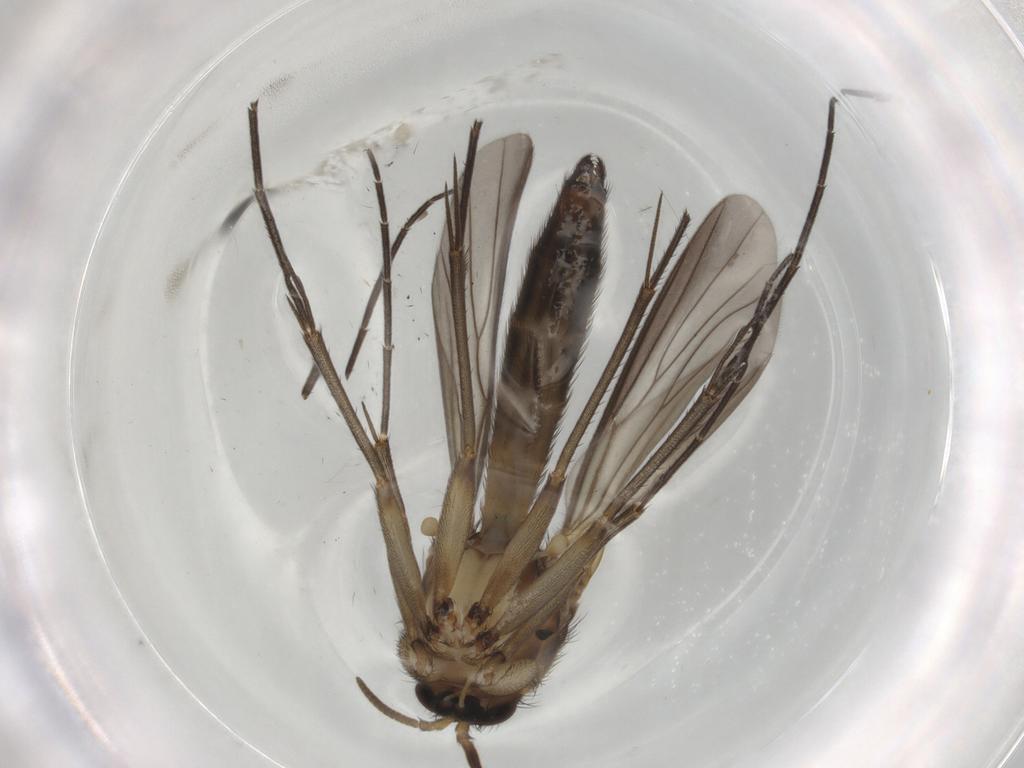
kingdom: Animalia
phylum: Arthropoda
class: Insecta
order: Diptera
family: Mycetophilidae
